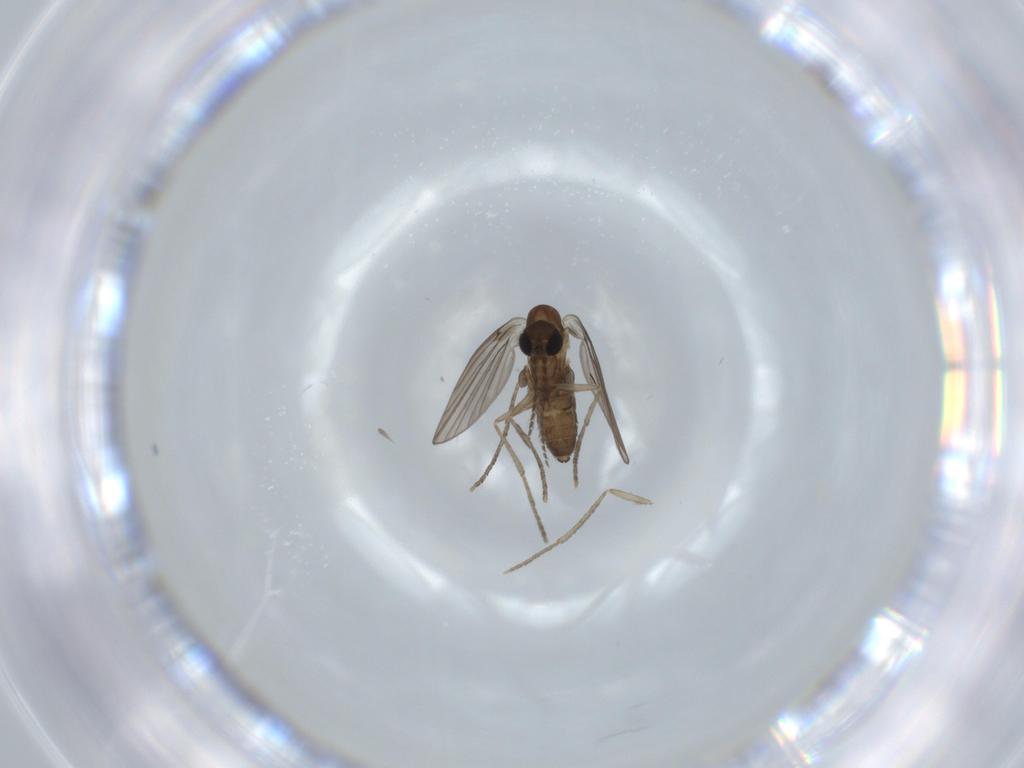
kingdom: Animalia
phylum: Arthropoda
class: Insecta
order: Diptera
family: Psychodidae
